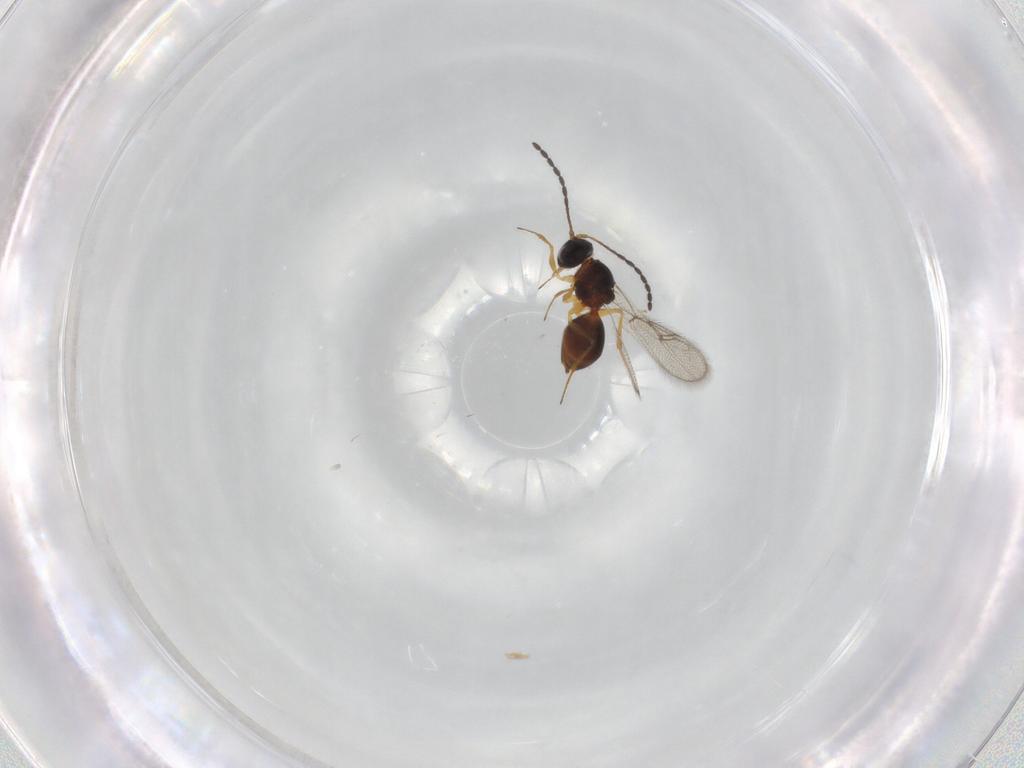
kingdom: Animalia
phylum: Arthropoda
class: Insecta
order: Hymenoptera
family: Figitidae
